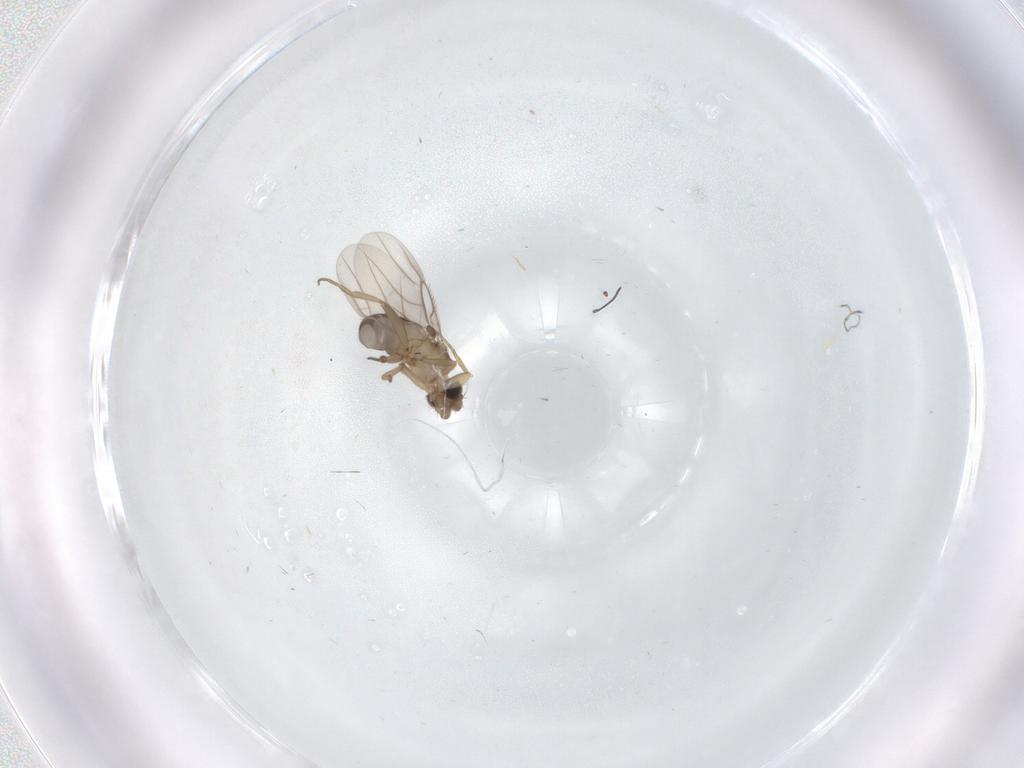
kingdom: Animalia
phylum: Arthropoda
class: Insecta
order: Diptera
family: Phoridae
